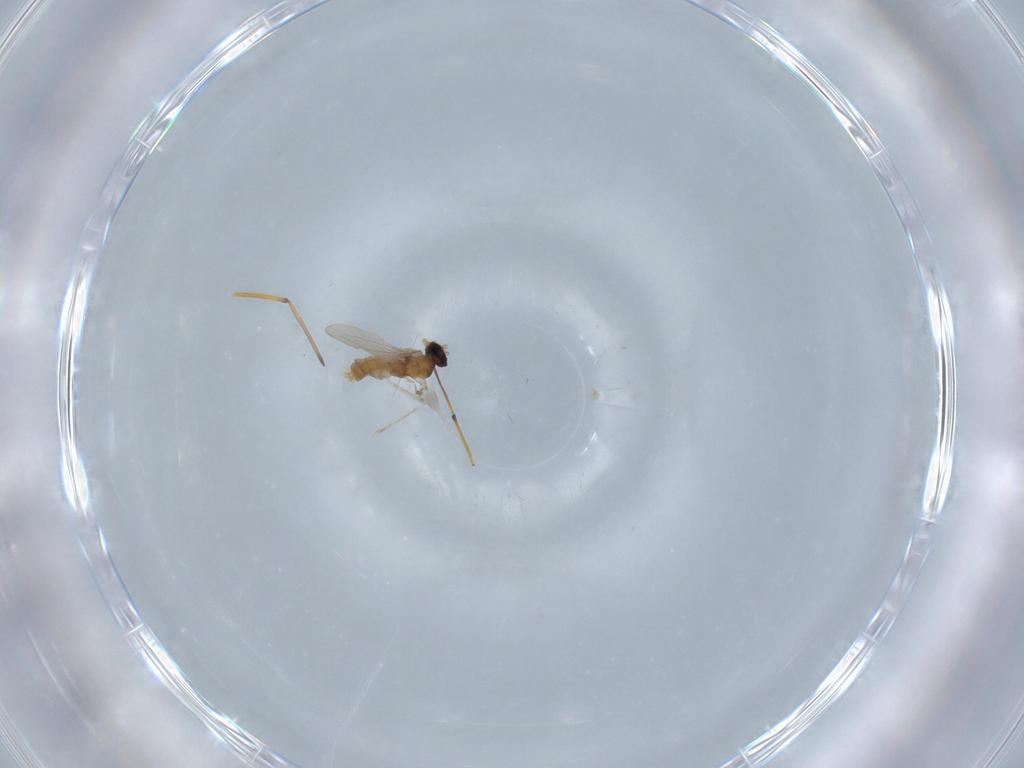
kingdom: Animalia
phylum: Arthropoda
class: Insecta
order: Diptera
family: Cecidomyiidae
